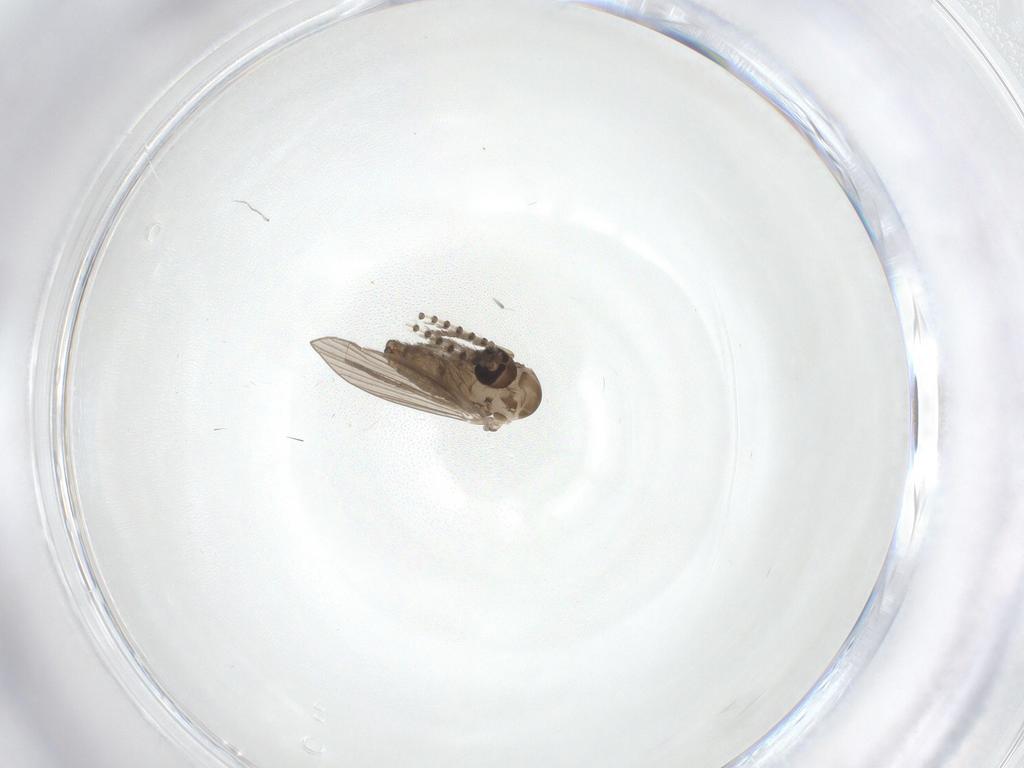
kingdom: Animalia
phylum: Arthropoda
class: Insecta
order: Diptera
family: Psychodidae
